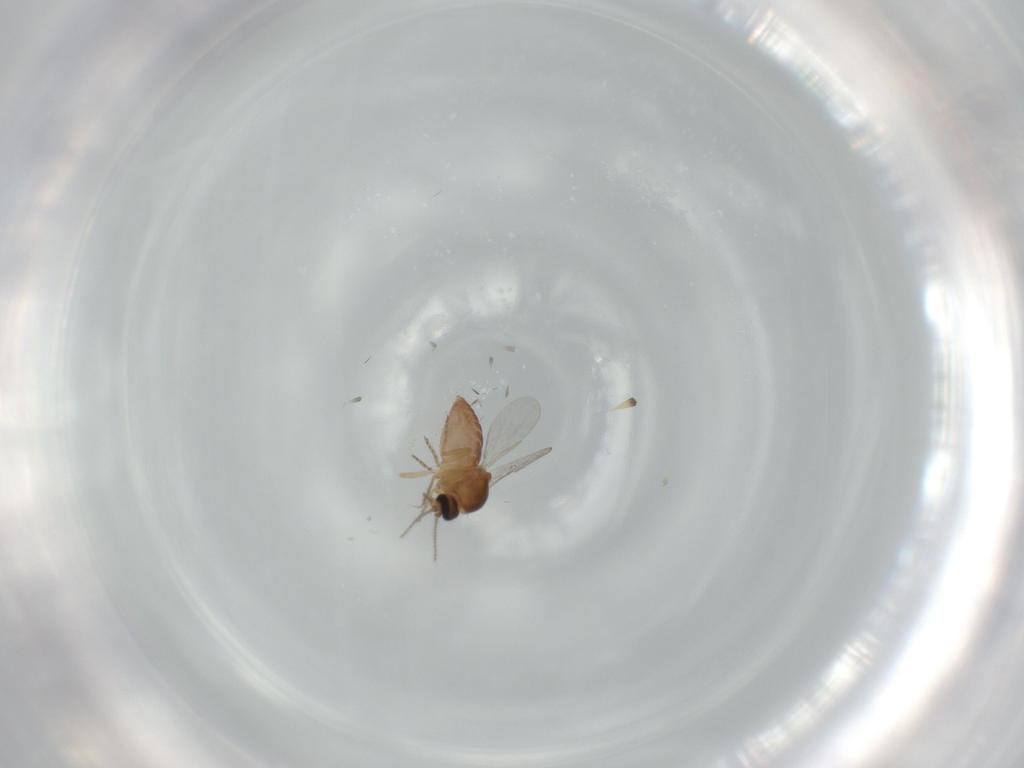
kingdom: Animalia
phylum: Arthropoda
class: Insecta
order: Diptera
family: Ceratopogonidae
